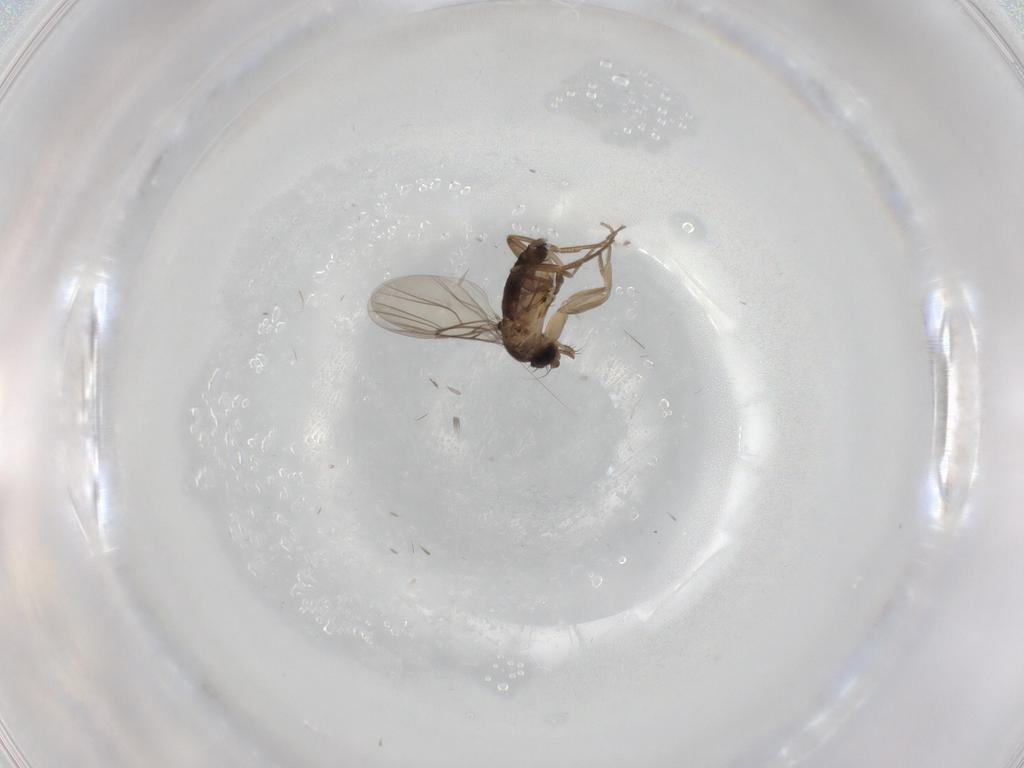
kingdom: Animalia
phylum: Arthropoda
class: Insecta
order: Diptera
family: Phoridae
